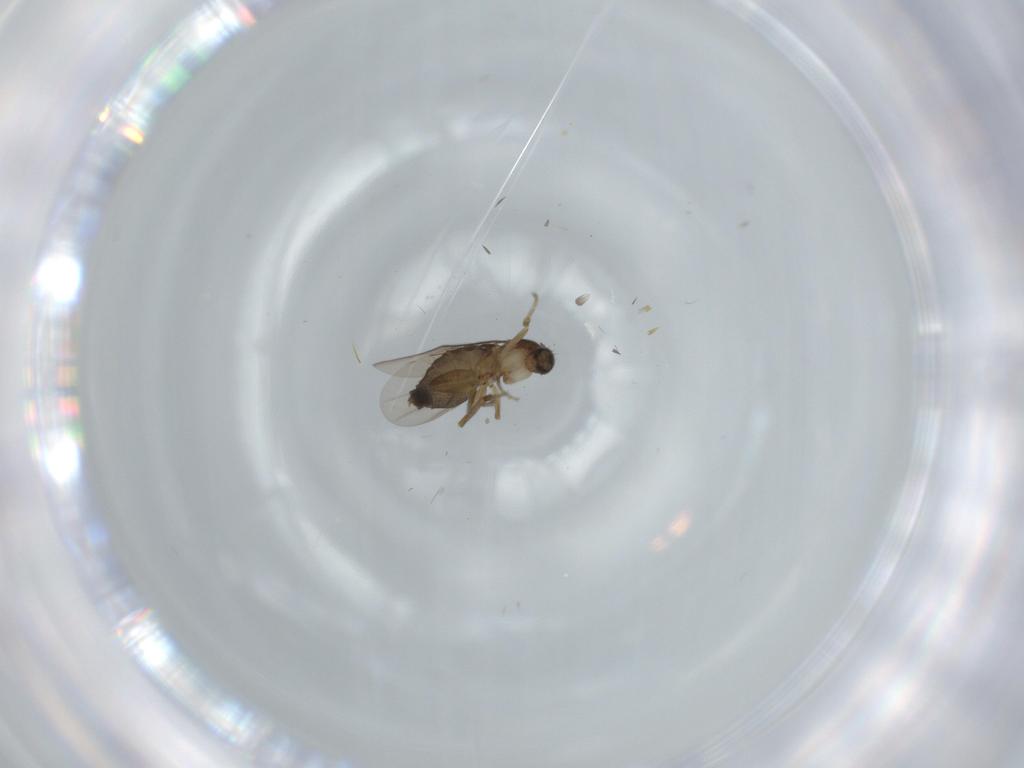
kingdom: Animalia
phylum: Arthropoda
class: Insecta
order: Diptera
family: Phoridae
